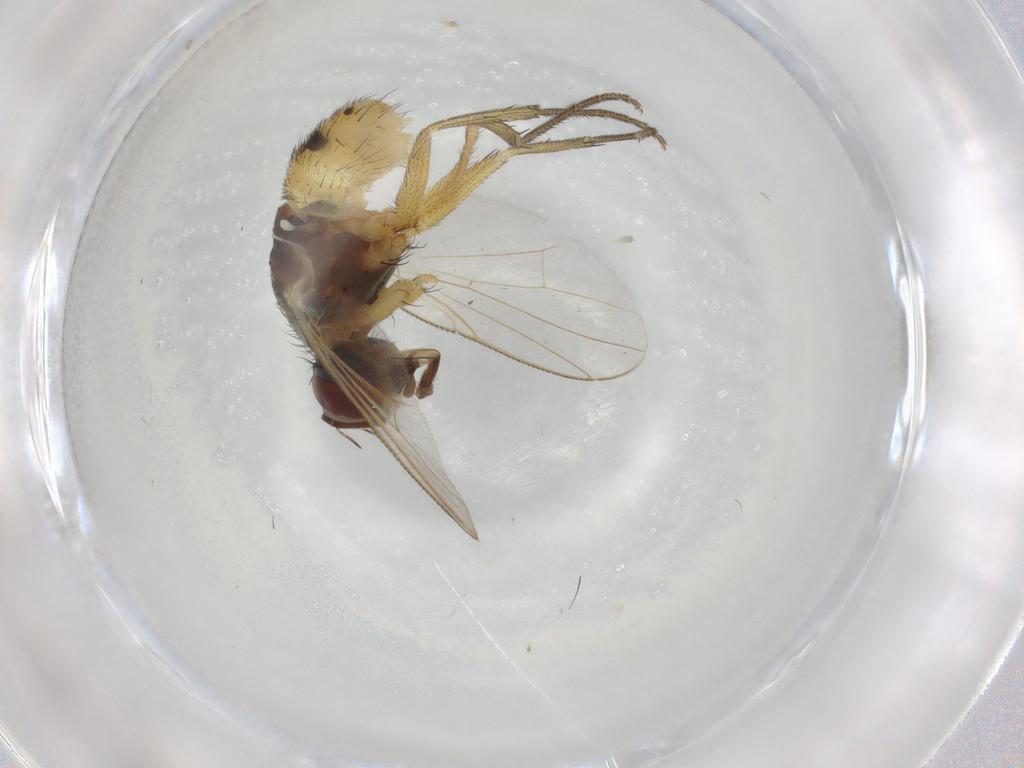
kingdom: Animalia
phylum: Arthropoda
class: Insecta
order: Diptera
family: Muscidae
